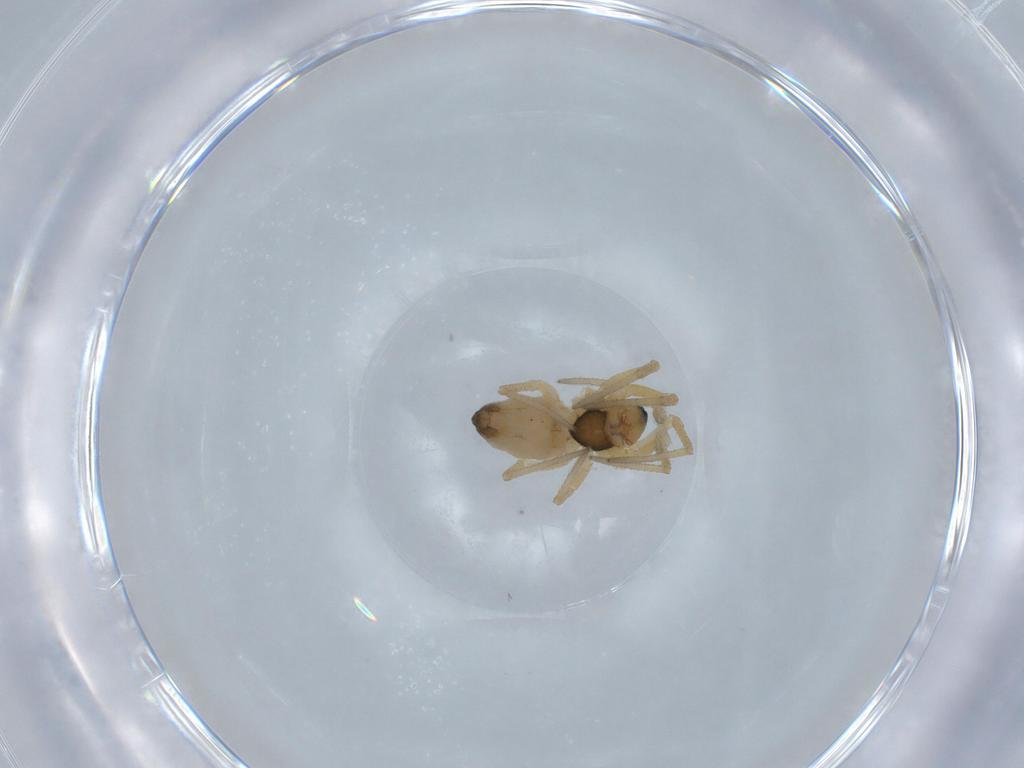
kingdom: Animalia
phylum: Arthropoda
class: Arachnida
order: Araneae
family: Linyphiidae
